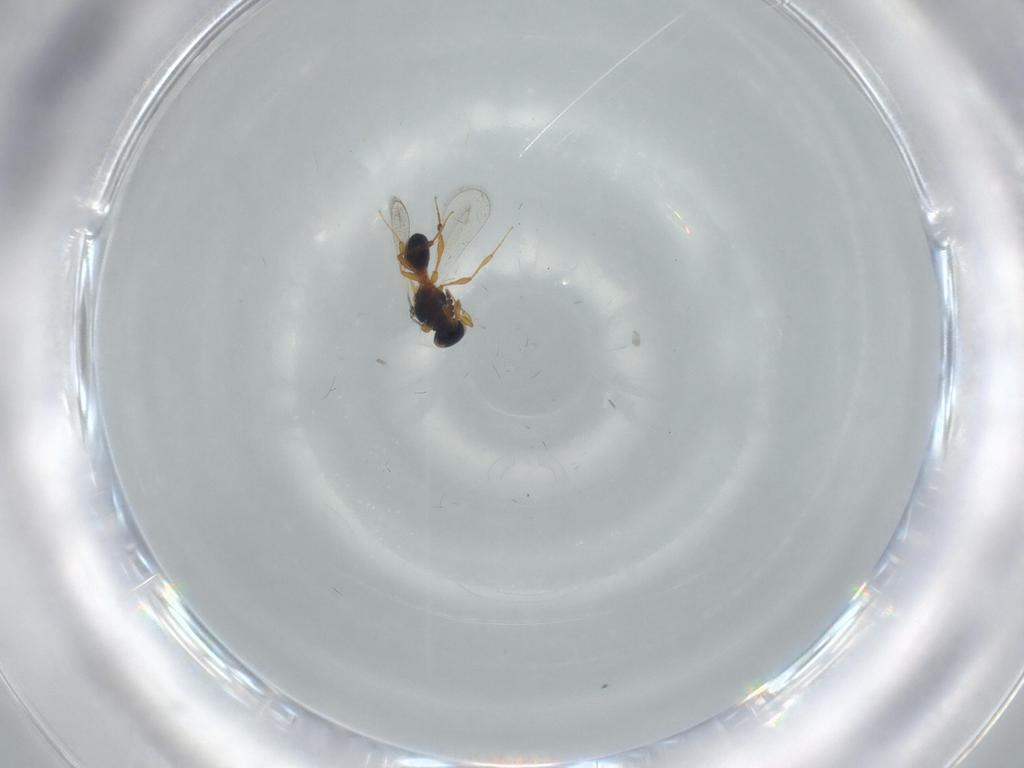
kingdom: Animalia
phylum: Arthropoda
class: Insecta
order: Hymenoptera
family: Platygastridae
